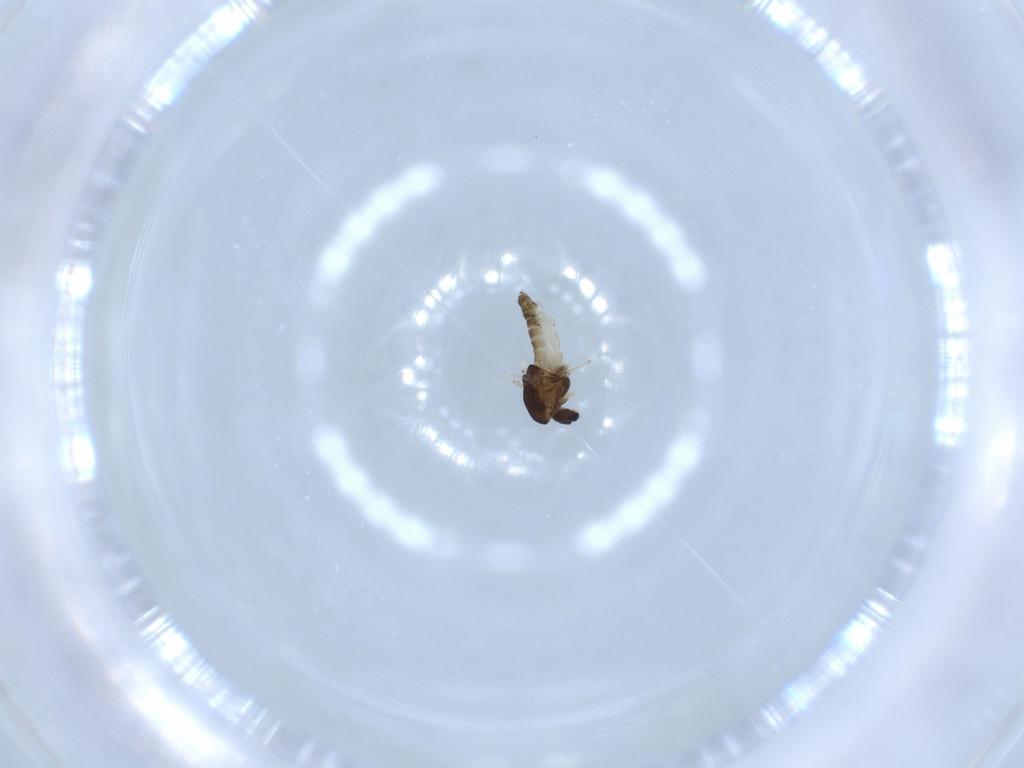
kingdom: Animalia
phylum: Arthropoda
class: Insecta
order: Diptera
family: Chironomidae
